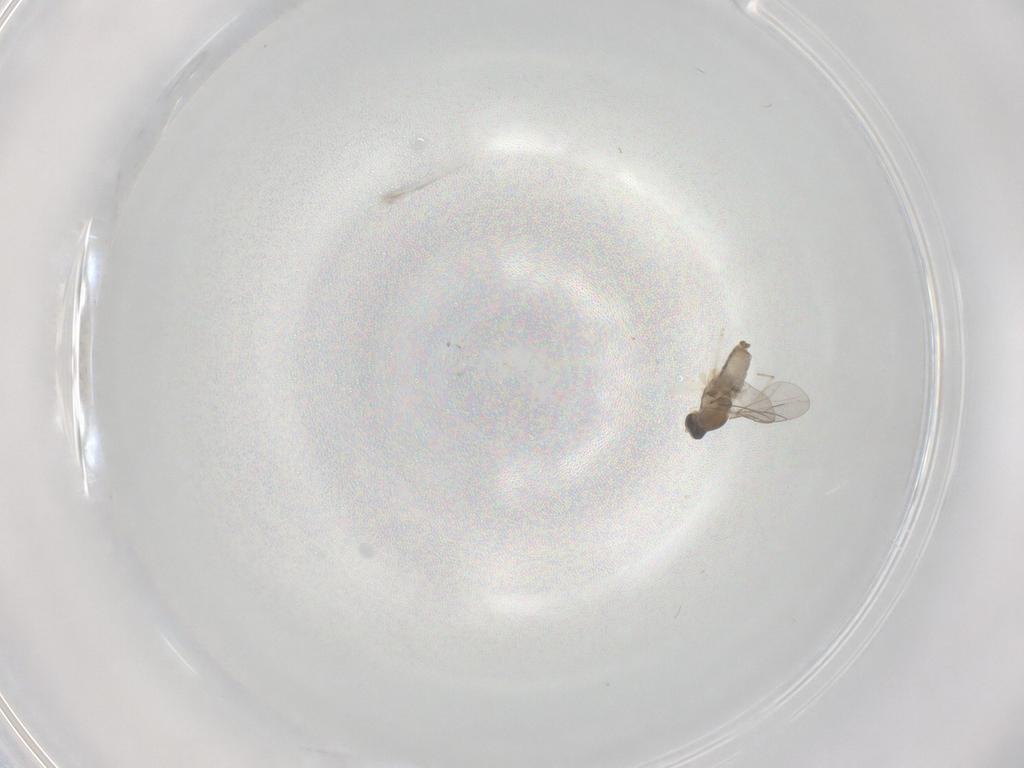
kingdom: Animalia
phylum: Arthropoda
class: Insecta
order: Diptera
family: Cecidomyiidae
